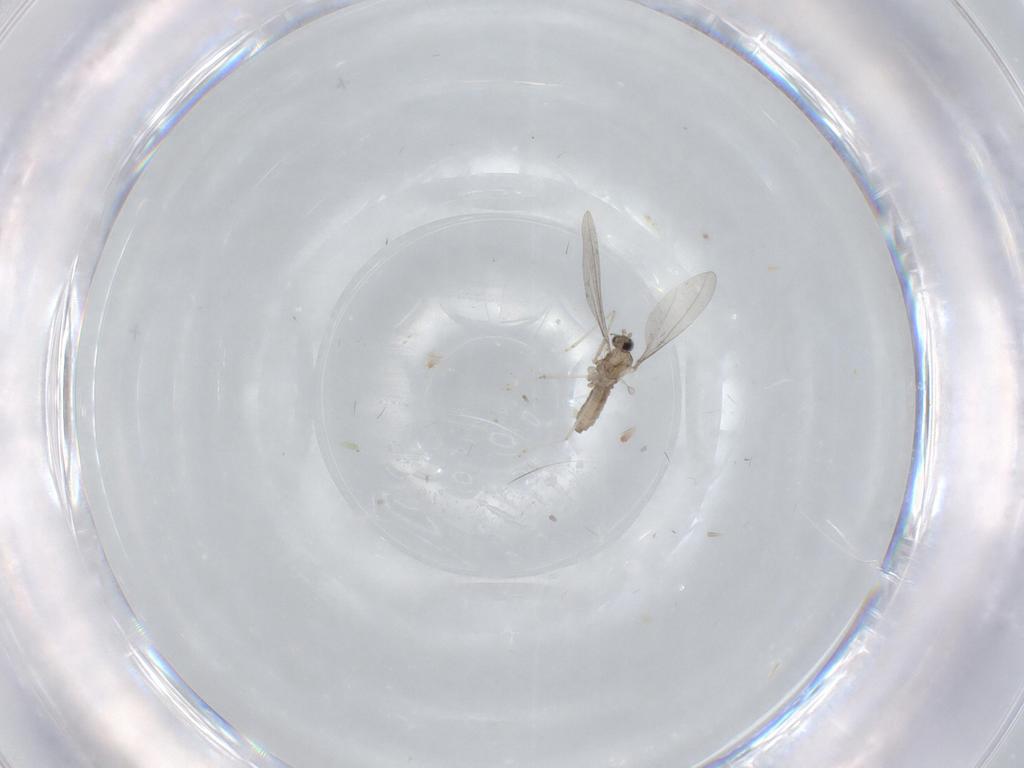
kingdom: Animalia
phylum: Arthropoda
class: Insecta
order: Diptera
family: Cecidomyiidae
